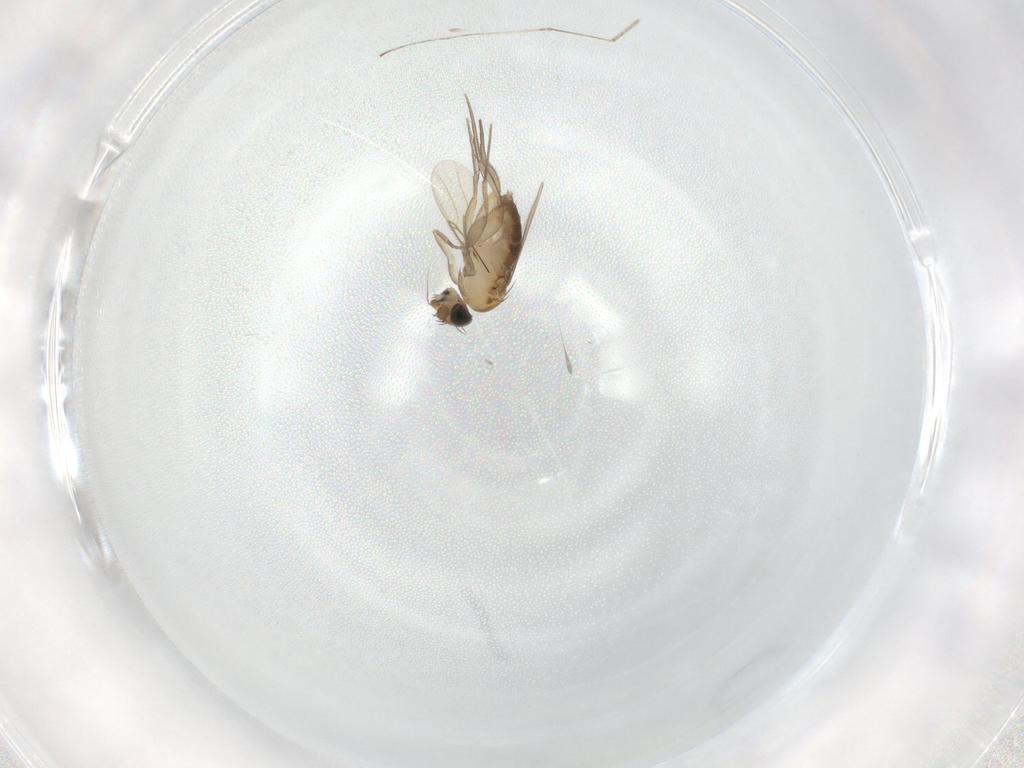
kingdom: Animalia
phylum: Arthropoda
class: Insecta
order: Diptera
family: Phoridae
